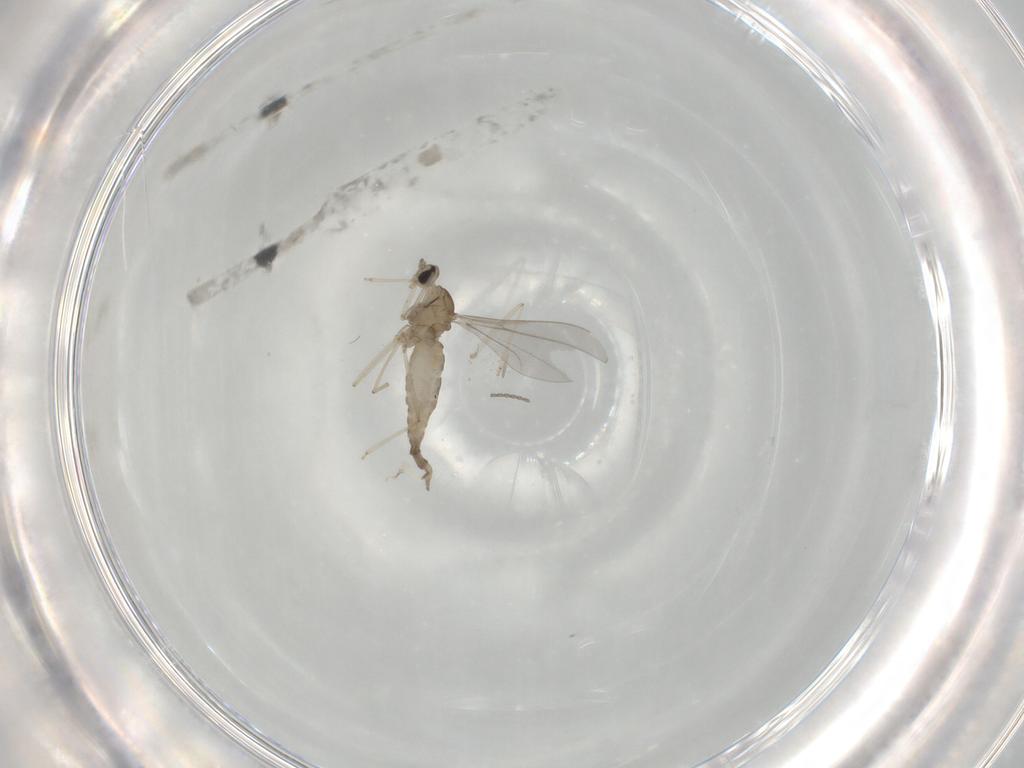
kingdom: Animalia
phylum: Arthropoda
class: Insecta
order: Diptera
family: Cecidomyiidae
